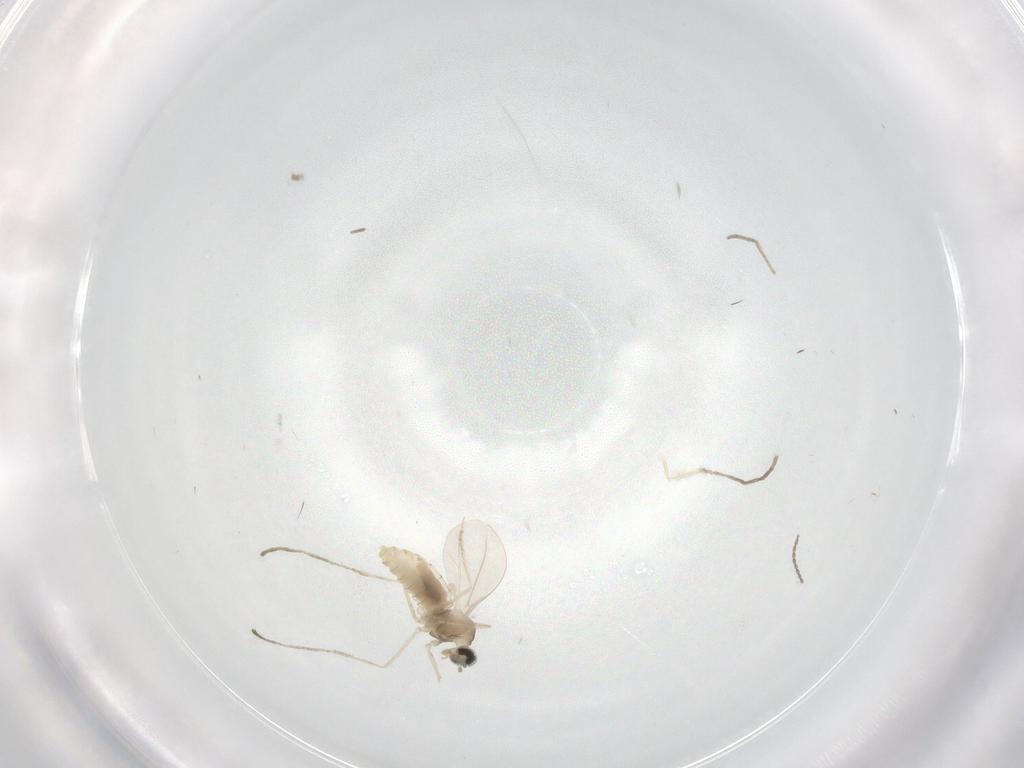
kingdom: Animalia
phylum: Arthropoda
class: Insecta
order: Diptera
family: Cecidomyiidae
